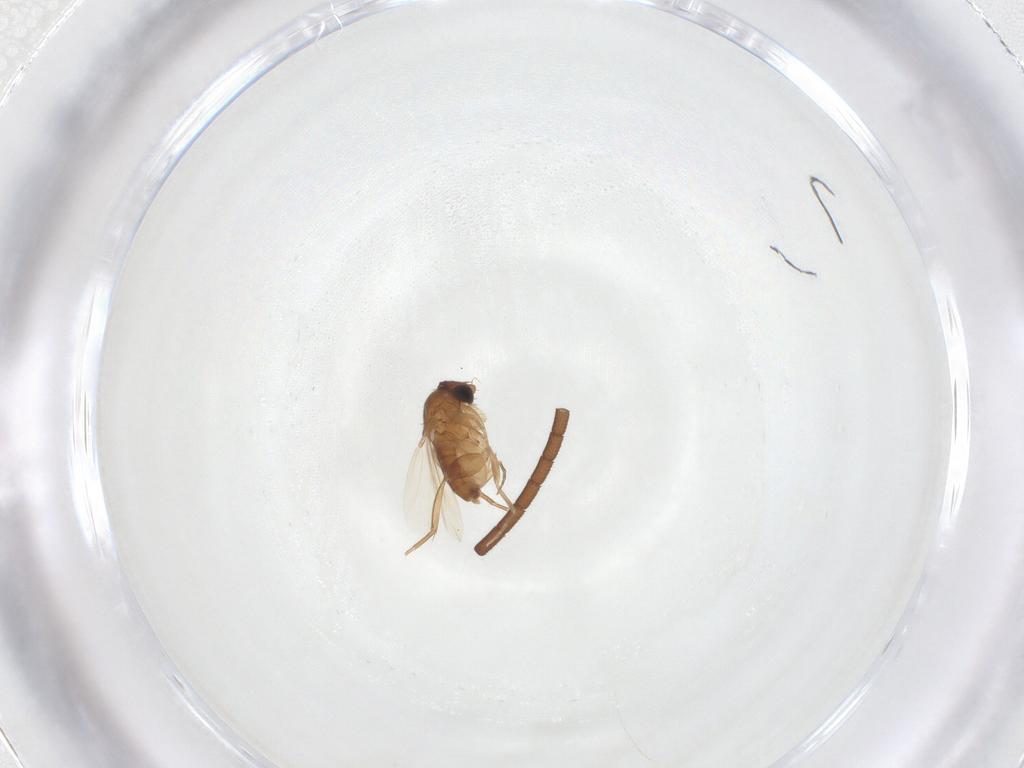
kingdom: Animalia
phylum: Arthropoda
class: Insecta
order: Diptera
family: Phoridae
